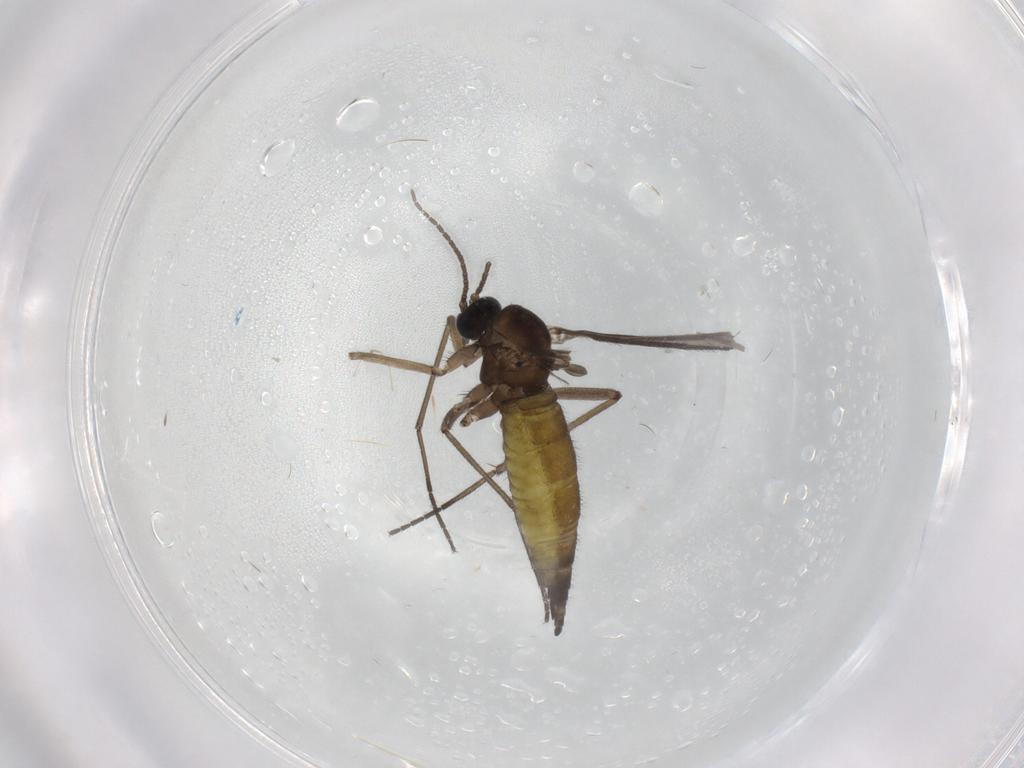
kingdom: Animalia
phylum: Arthropoda
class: Insecta
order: Diptera
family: Sciaridae
